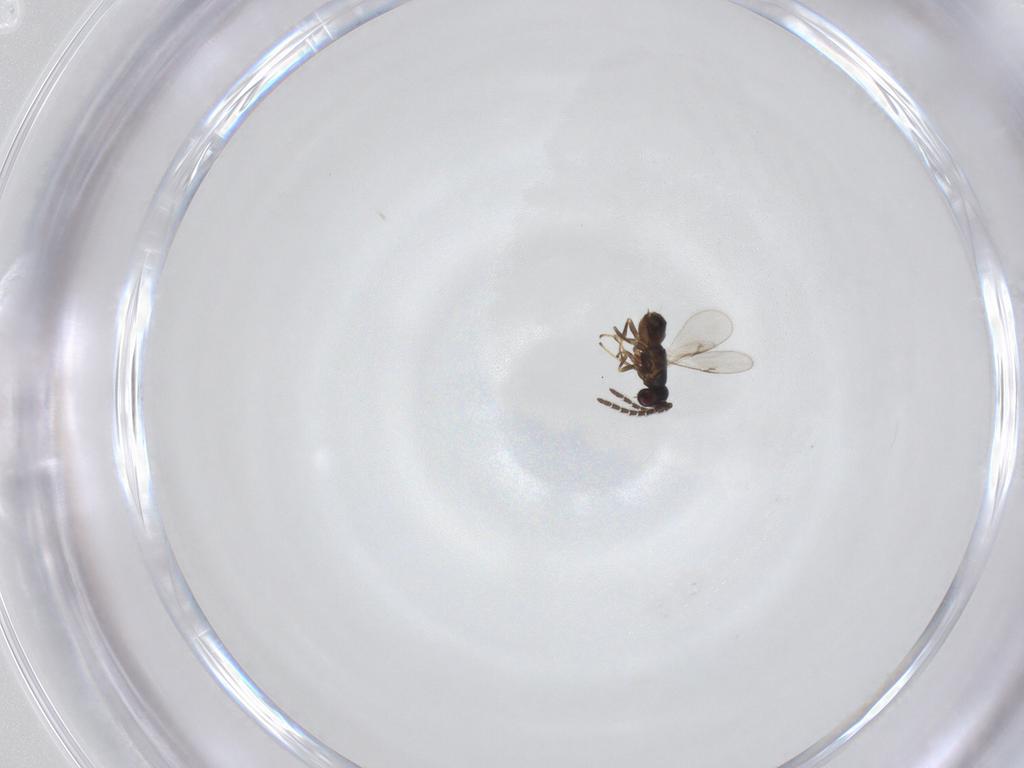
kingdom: Animalia
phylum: Arthropoda
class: Insecta
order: Hymenoptera
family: Encyrtidae
